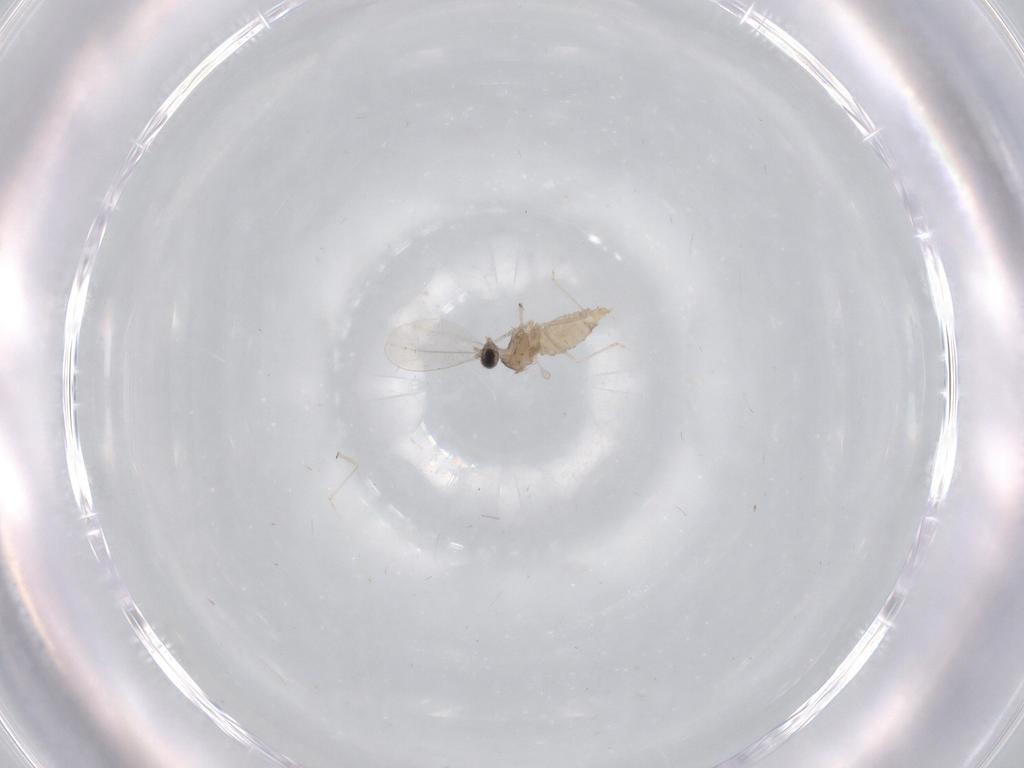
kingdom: Animalia
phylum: Arthropoda
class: Insecta
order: Diptera
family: Cecidomyiidae
